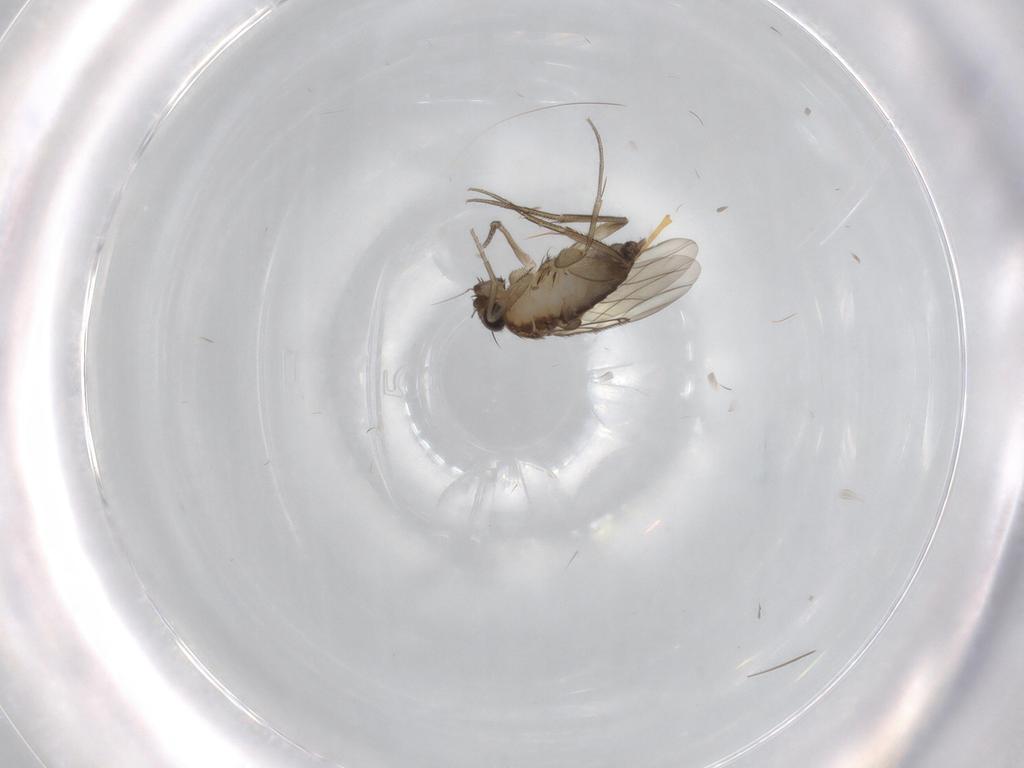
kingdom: Animalia
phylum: Arthropoda
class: Insecta
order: Diptera
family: Phoridae
